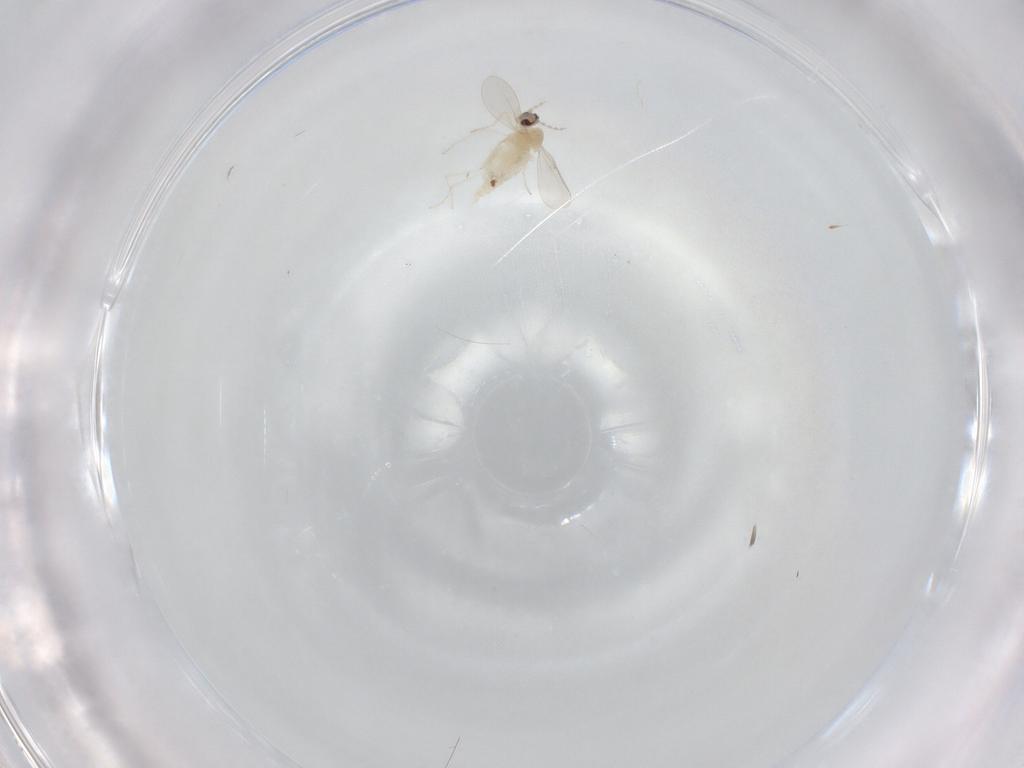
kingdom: Animalia
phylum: Arthropoda
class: Insecta
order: Diptera
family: Cecidomyiidae
